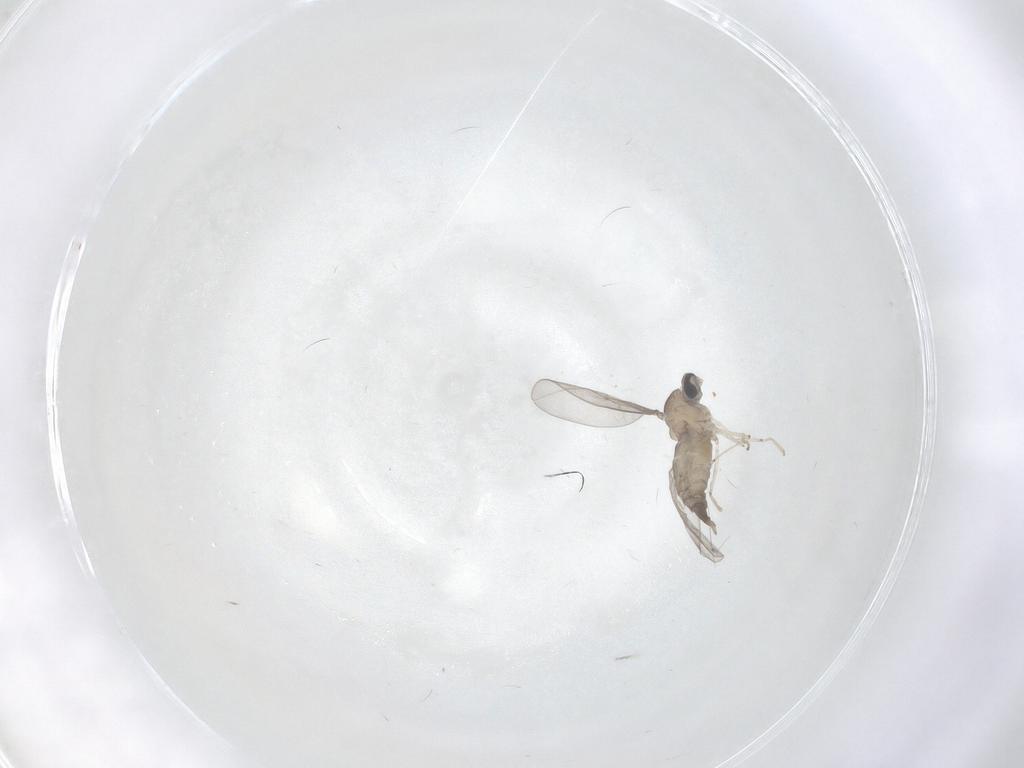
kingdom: Animalia
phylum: Arthropoda
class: Insecta
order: Diptera
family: Cecidomyiidae
